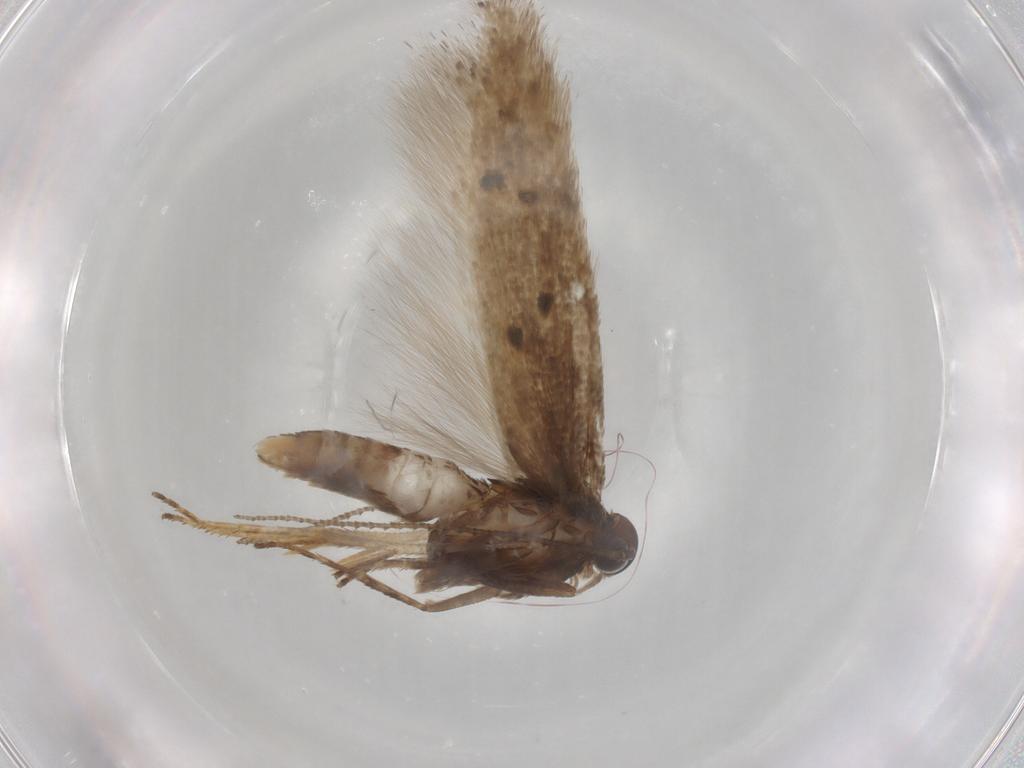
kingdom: Animalia
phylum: Arthropoda
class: Insecta
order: Lepidoptera
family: Gelechiidae
